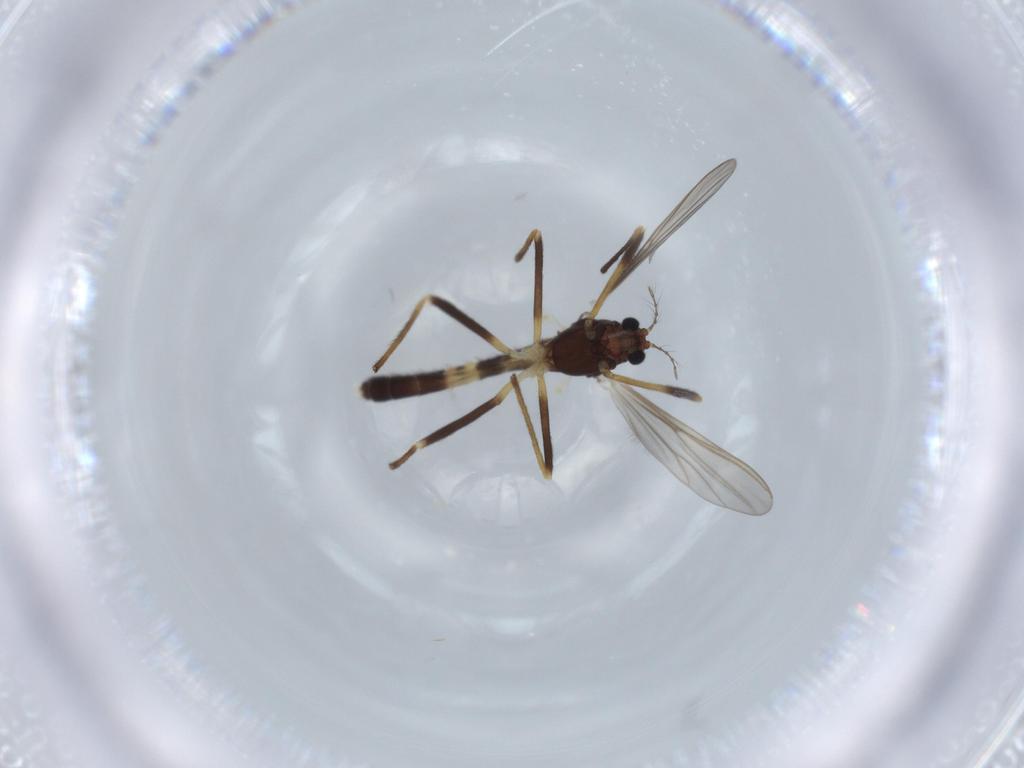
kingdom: Animalia
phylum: Arthropoda
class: Insecta
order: Diptera
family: Chironomidae
